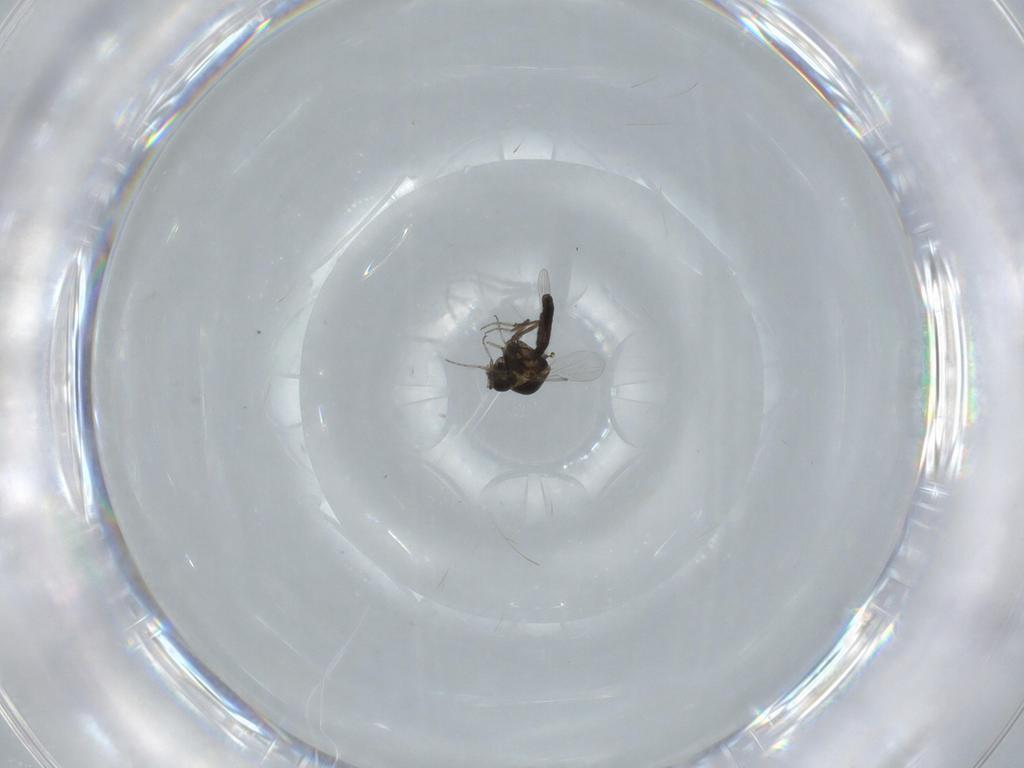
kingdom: Animalia
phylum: Arthropoda
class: Insecta
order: Diptera
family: Ceratopogonidae
